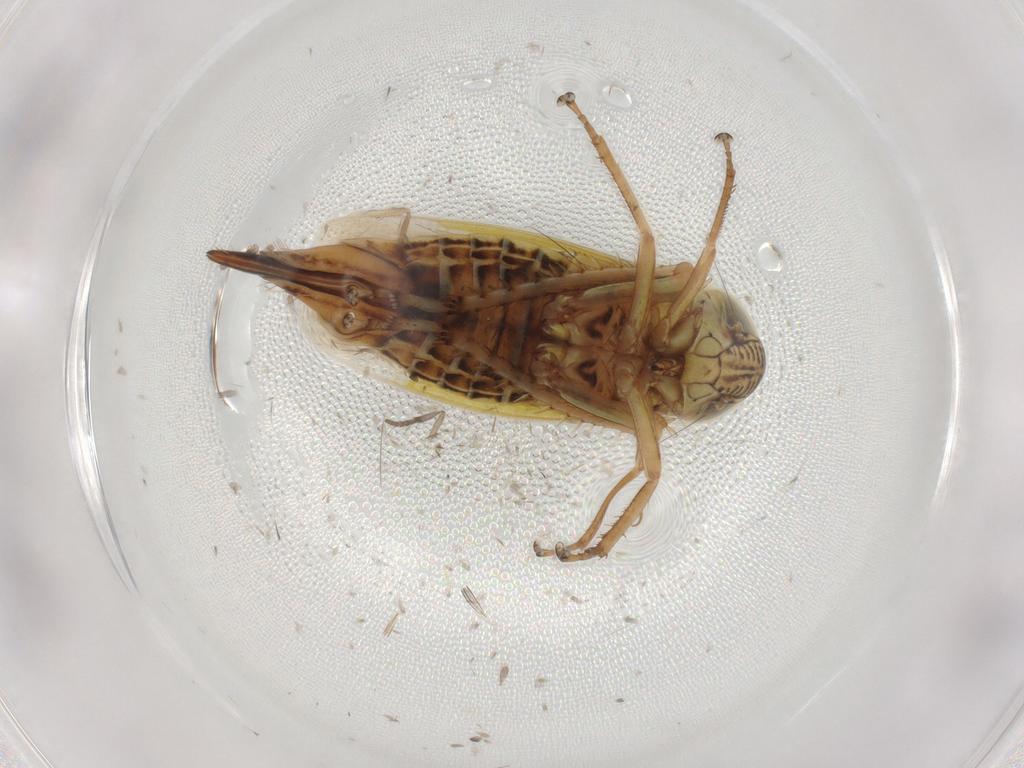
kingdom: Animalia
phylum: Arthropoda
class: Insecta
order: Hemiptera
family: Cicadellidae
